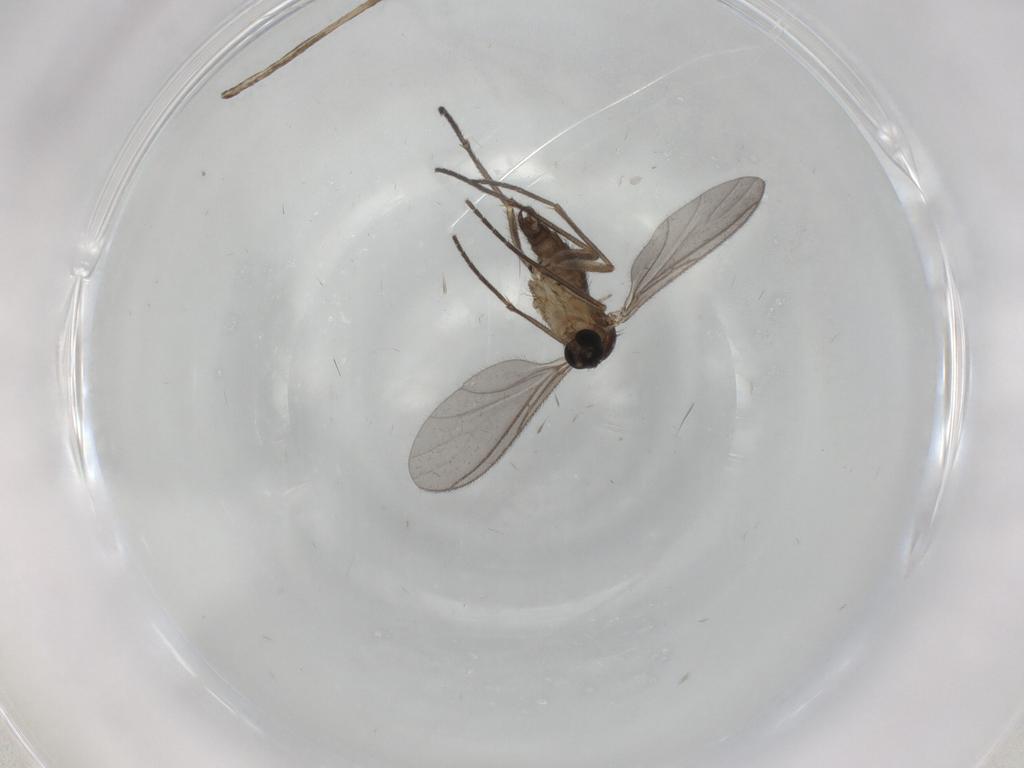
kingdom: Animalia
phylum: Arthropoda
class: Insecta
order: Diptera
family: Sciaridae
